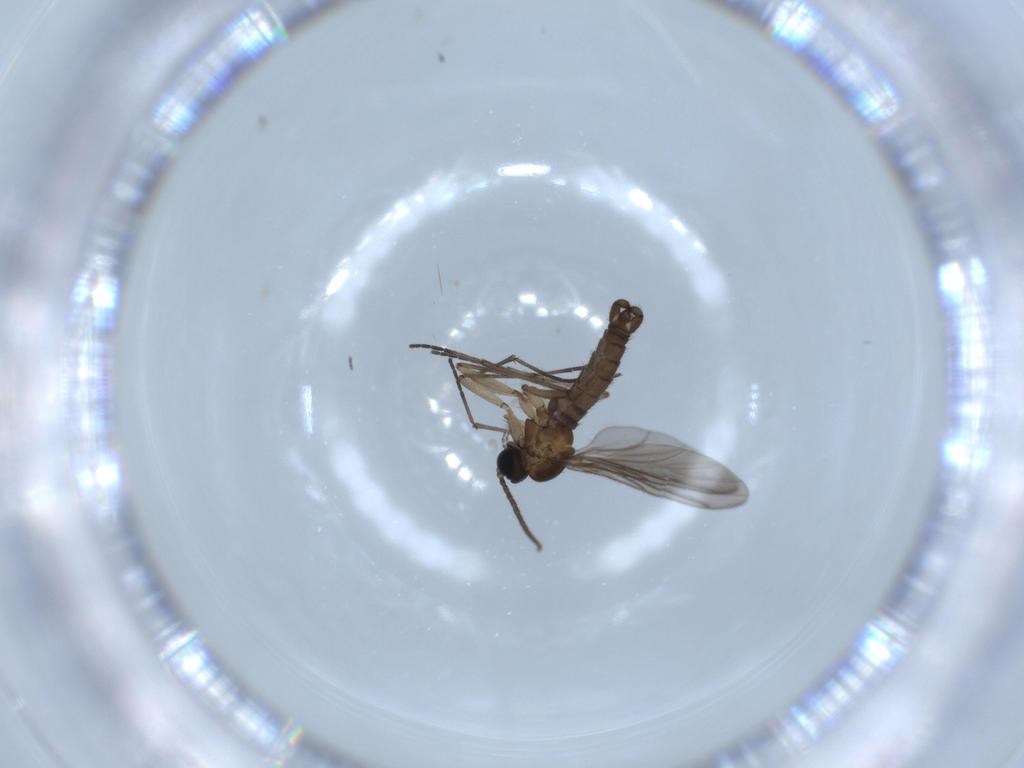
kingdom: Animalia
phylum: Arthropoda
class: Insecta
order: Diptera
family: Sciaridae
